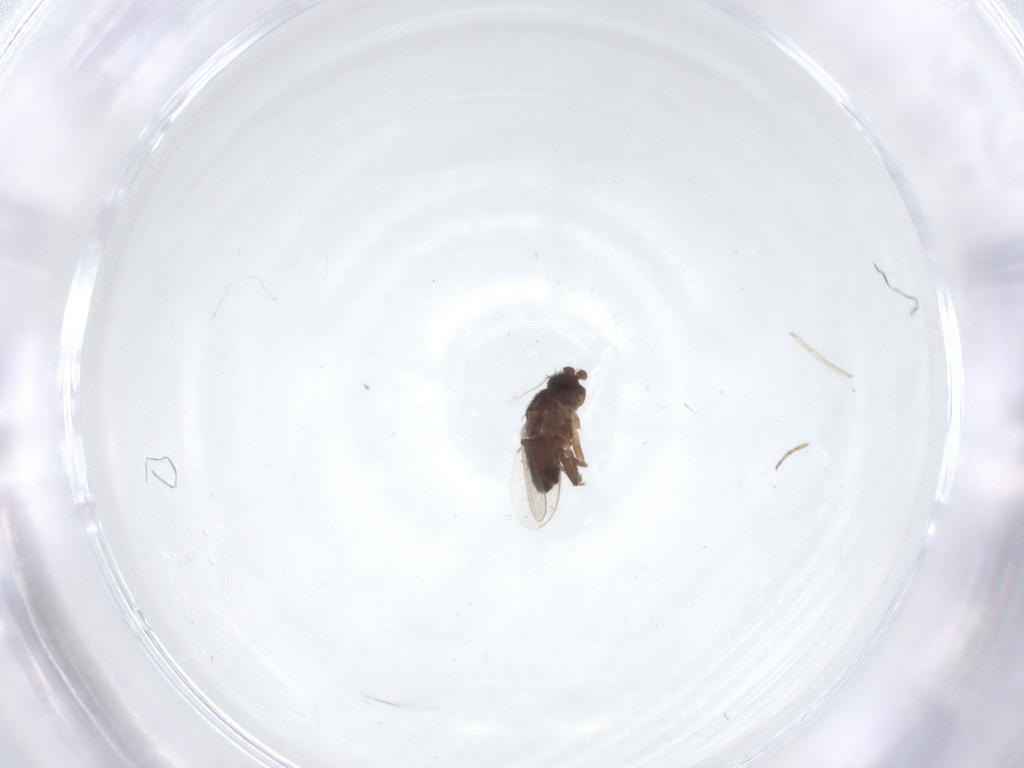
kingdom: Animalia
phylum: Arthropoda
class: Insecta
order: Diptera
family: Sphaeroceridae
